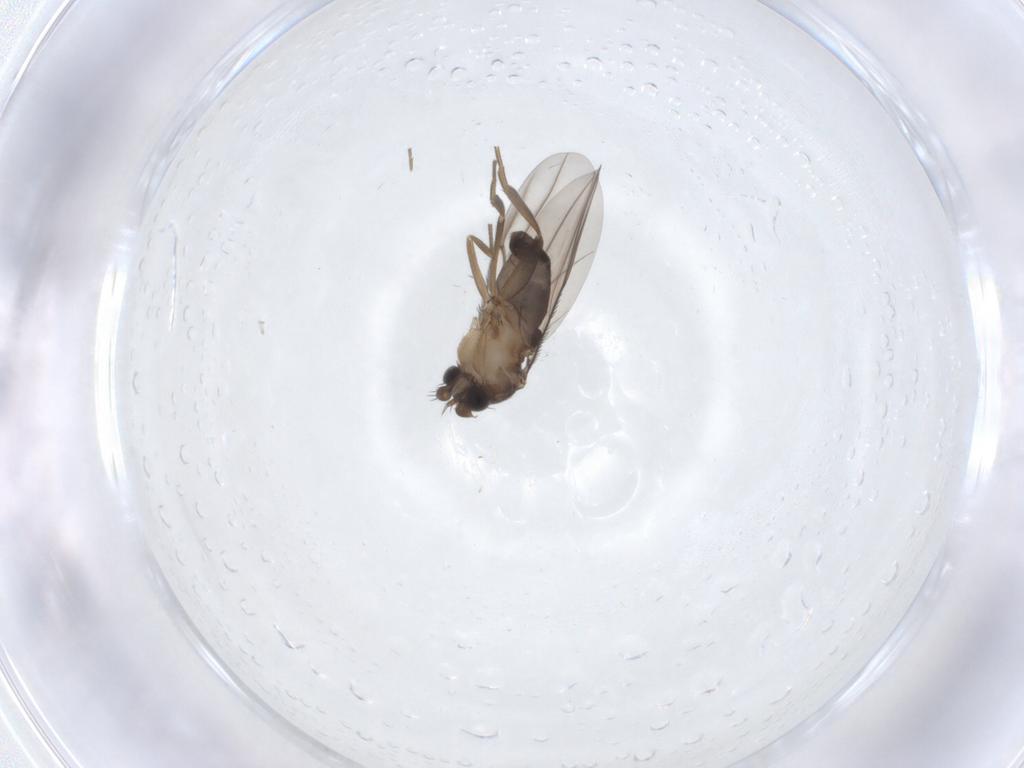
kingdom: Animalia
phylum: Arthropoda
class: Insecta
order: Diptera
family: Phoridae
